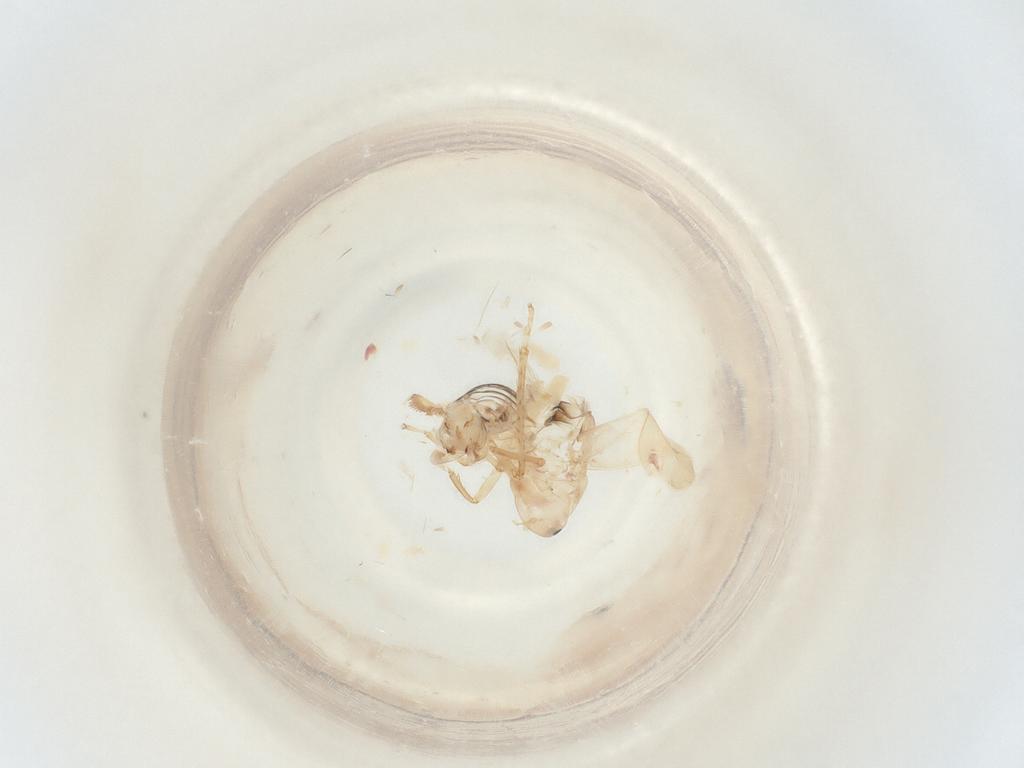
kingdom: Animalia
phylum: Arthropoda
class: Insecta
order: Hemiptera
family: Cicadellidae
